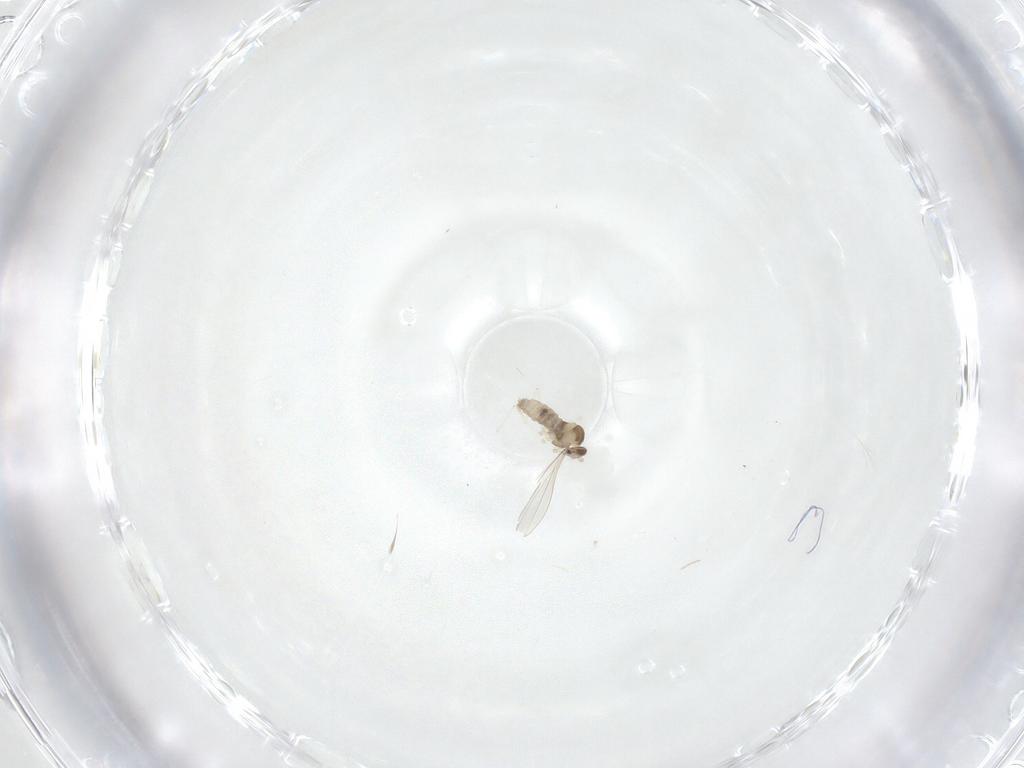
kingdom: Animalia
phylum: Arthropoda
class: Insecta
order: Diptera
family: Cecidomyiidae
